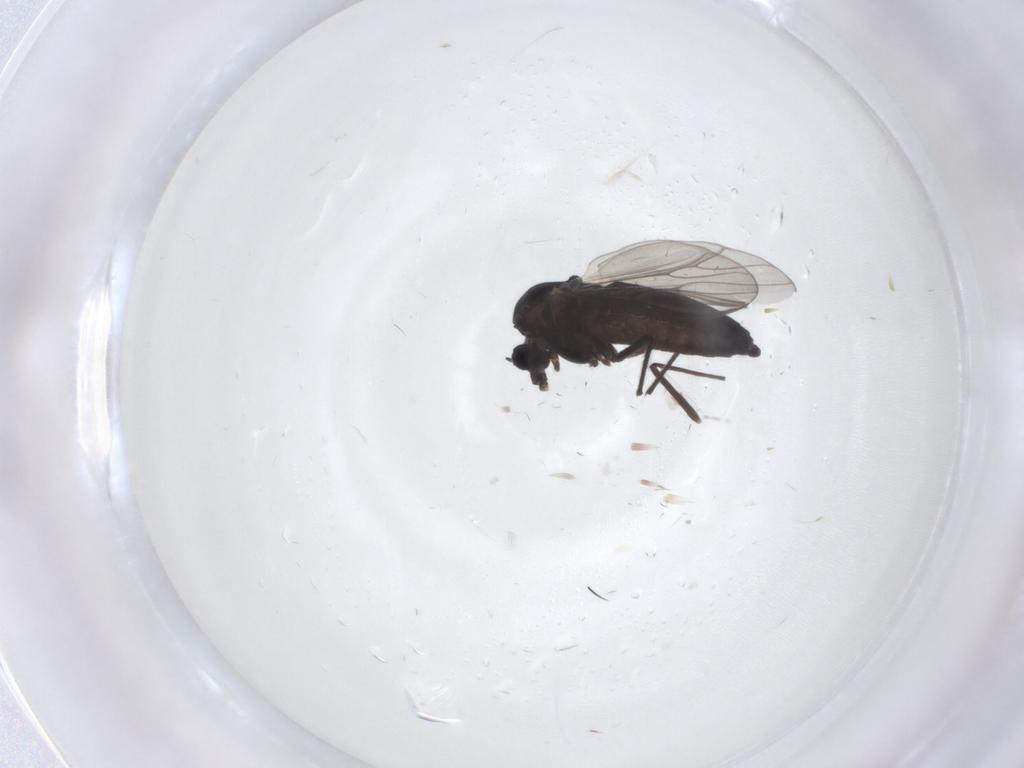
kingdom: Animalia
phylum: Arthropoda
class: Insecta
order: Diptera
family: Chironomidae
